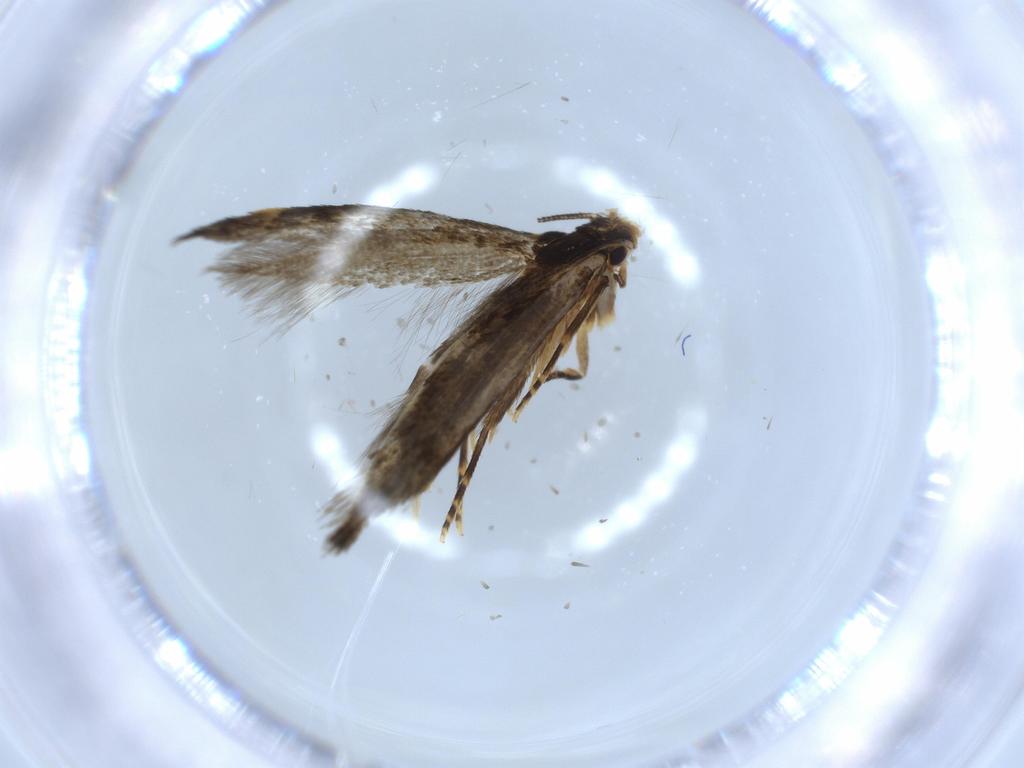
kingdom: Animalia
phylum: Arthropoda
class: Insecta
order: Lepidoptera
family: Tineidae
